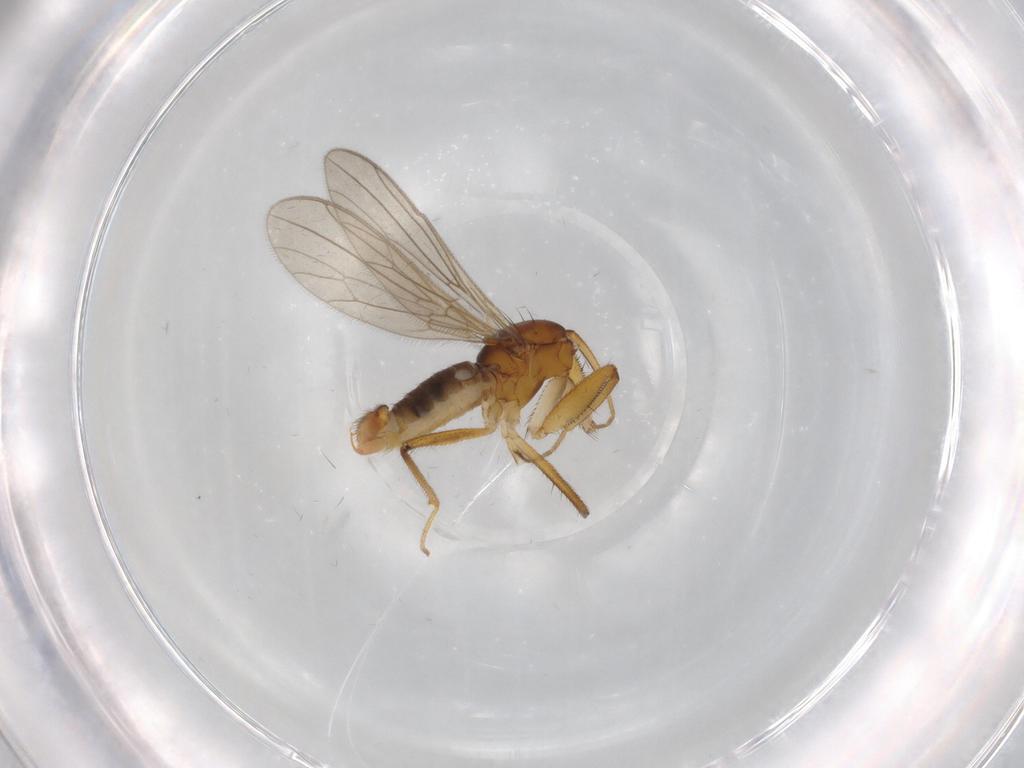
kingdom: Animalia
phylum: Arthropoda
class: Insecta
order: Diptera
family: Empididae
